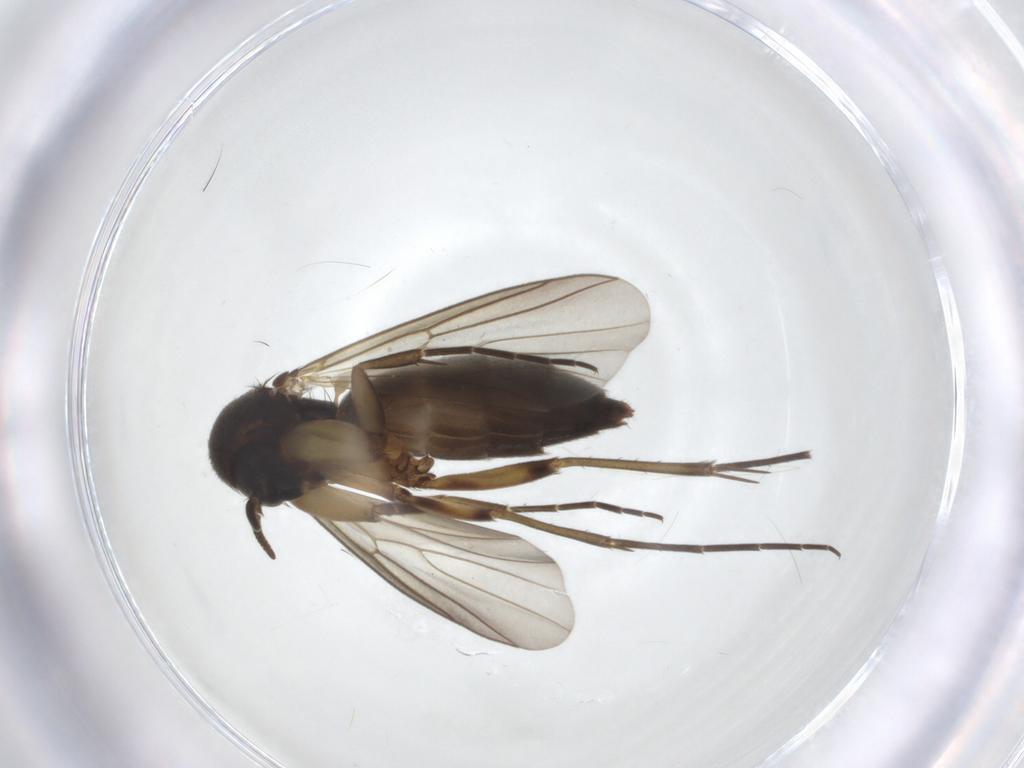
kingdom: Animalia
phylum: Arthropoda
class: Insecta
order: Diptera
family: Mycetophilidae
